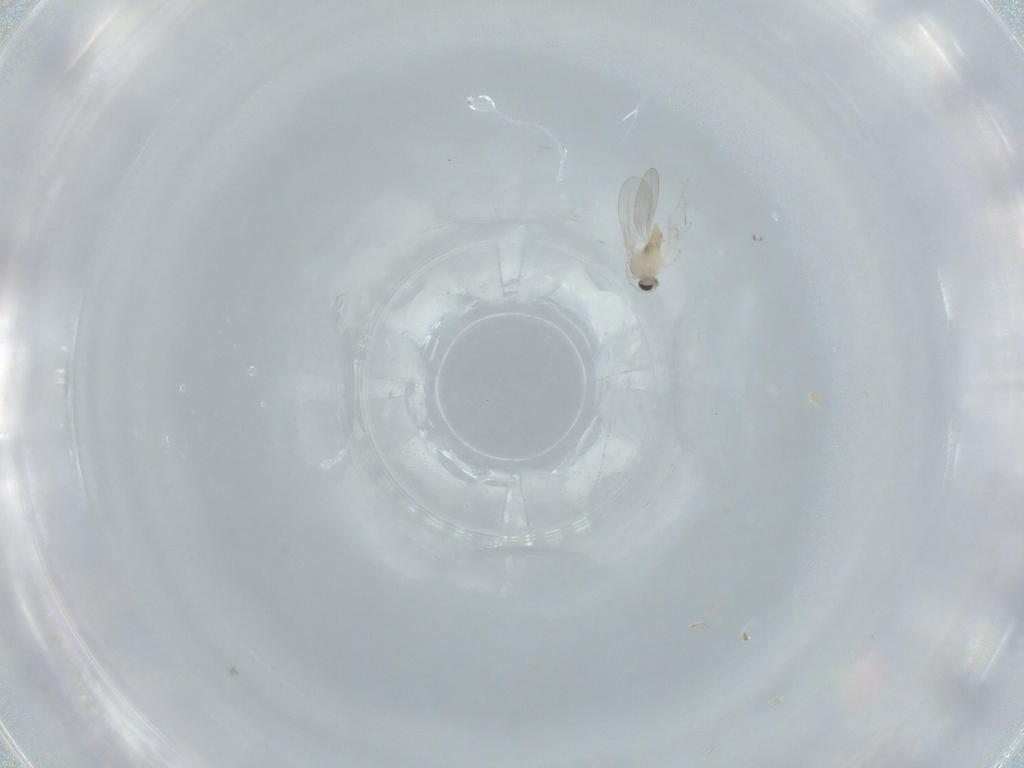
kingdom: Animalia
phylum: Arthropoda
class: Insecta
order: Diptera
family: Cecidomyiidae
